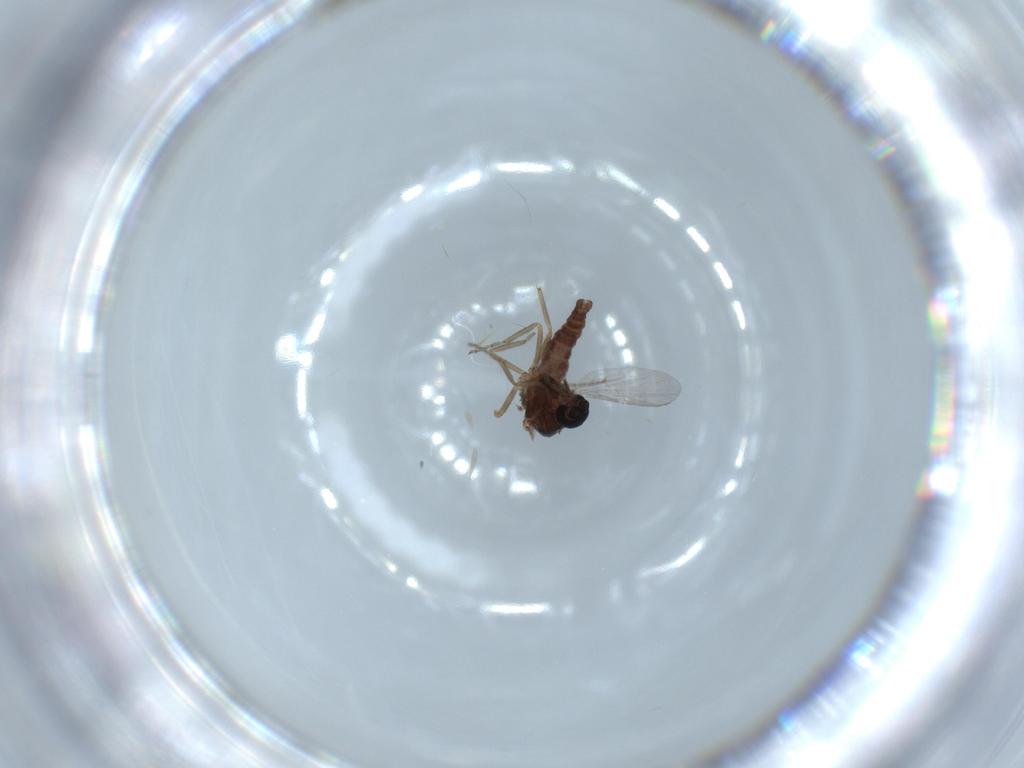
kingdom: Animalia
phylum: Arthropoda
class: Insecta
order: Diptera
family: Ceratopogonidae
